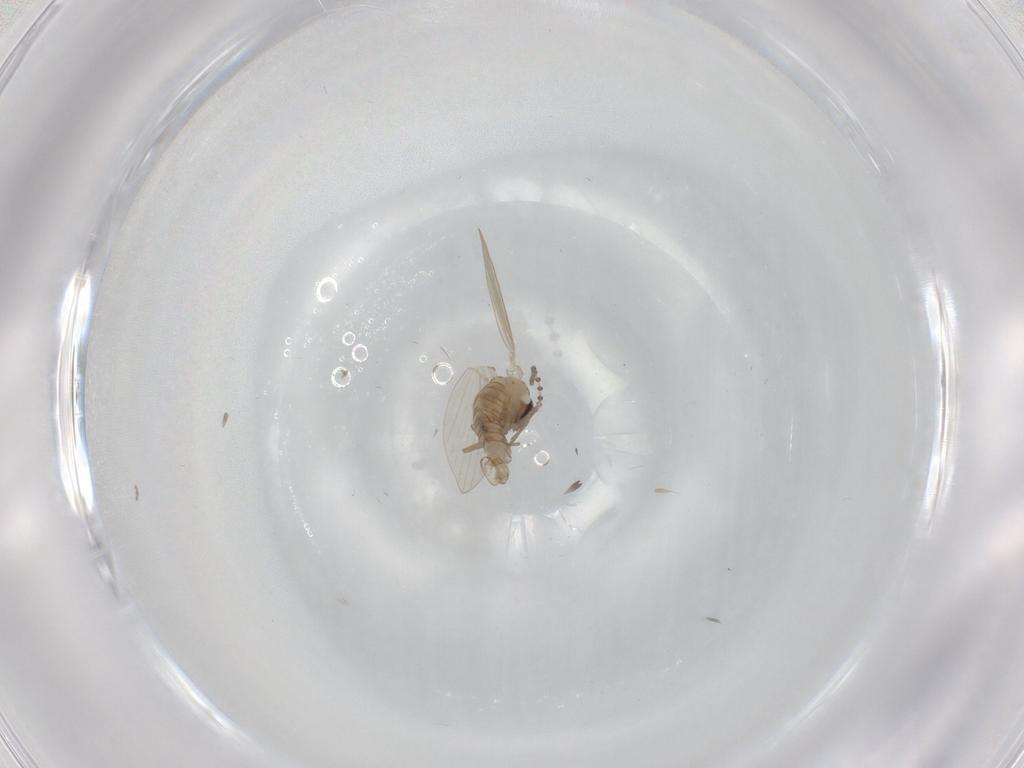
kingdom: Animalia
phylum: Arthropoda
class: Insecta
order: Diptera
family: Psychodidae
